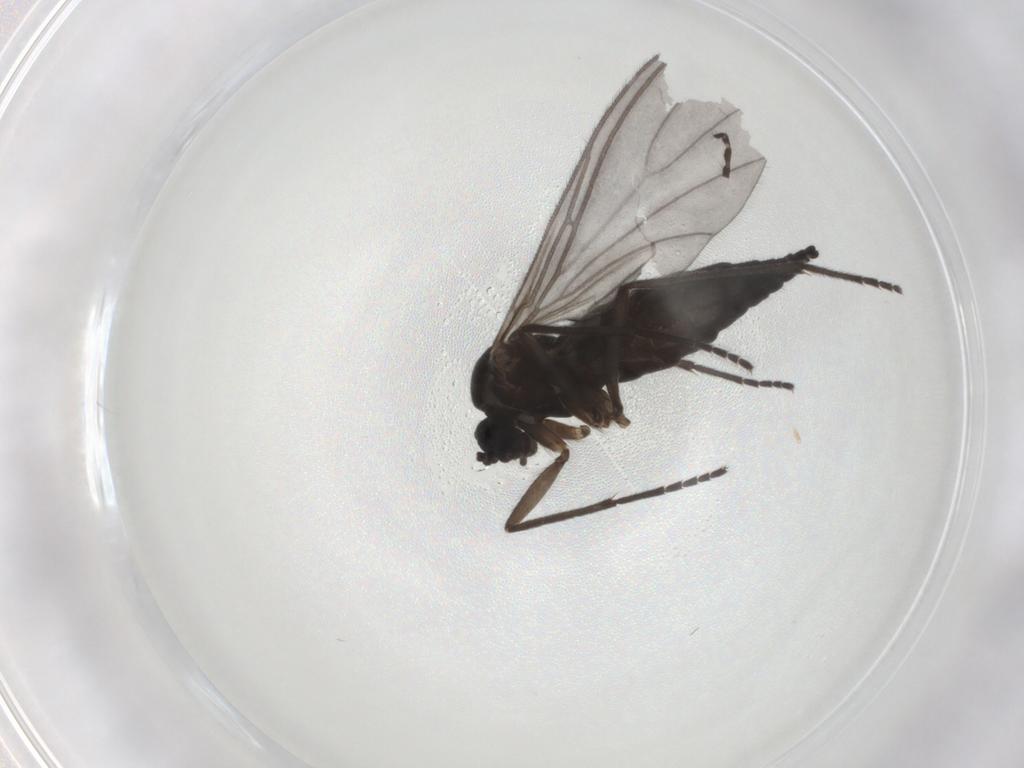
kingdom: Animalia
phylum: Arthropoda
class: Insecta
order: Diptera
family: Sciaridae
